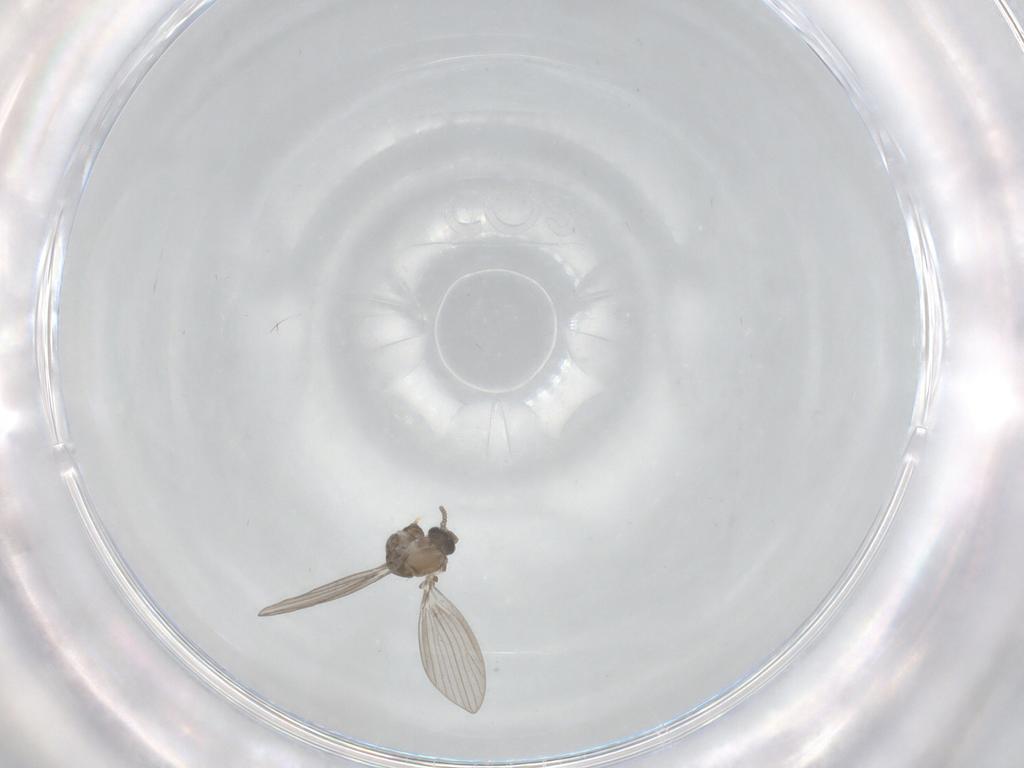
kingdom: Animalia
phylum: Arthropoda
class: Insecta
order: Diptera
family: Psychodidae
